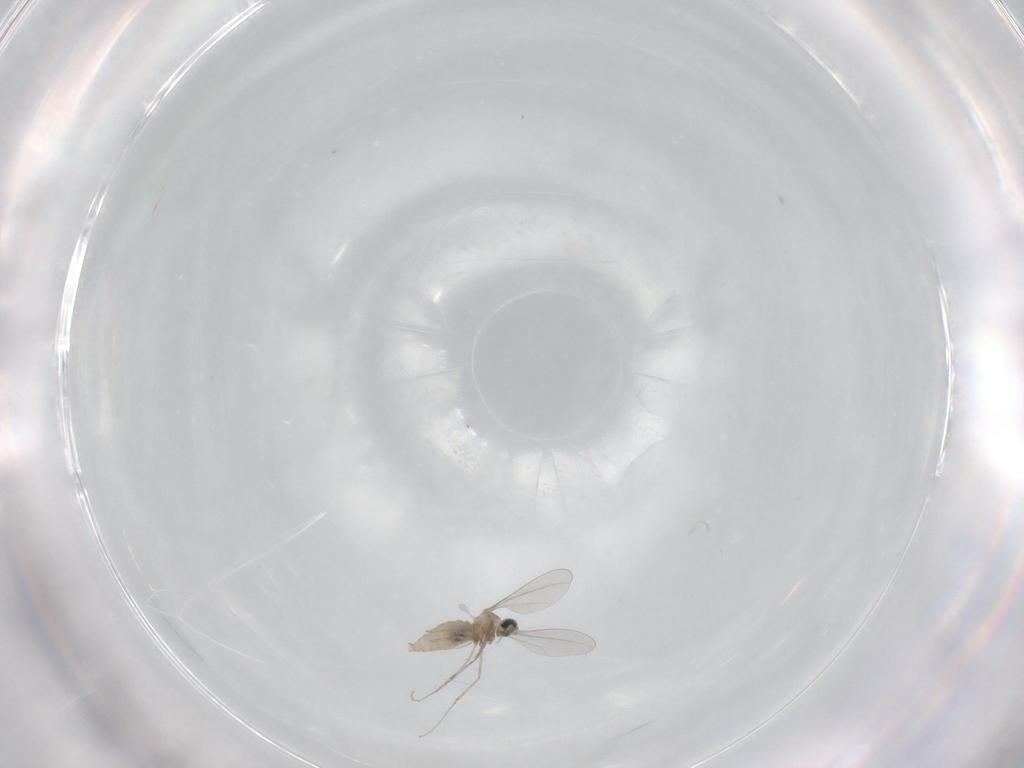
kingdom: Animalia
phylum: Arthropoda
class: Insecta
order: Diptera
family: Cecidomyiidae
